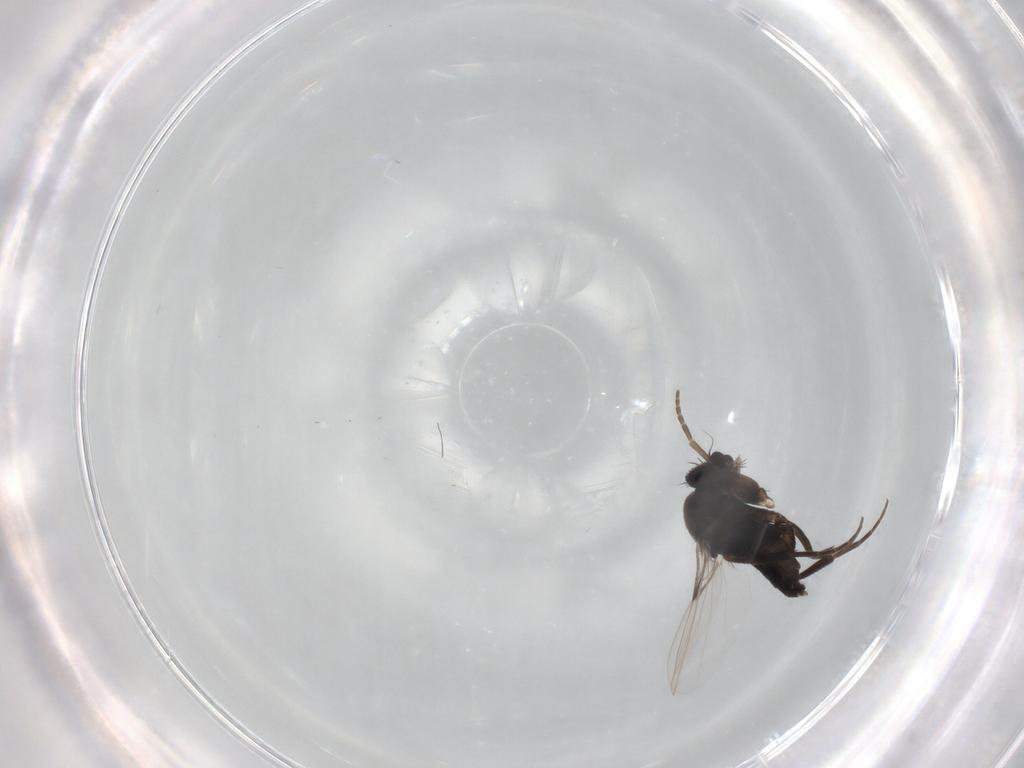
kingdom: Animalia
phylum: Arthropoda
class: Insecta
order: Diptera
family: Phoridae
